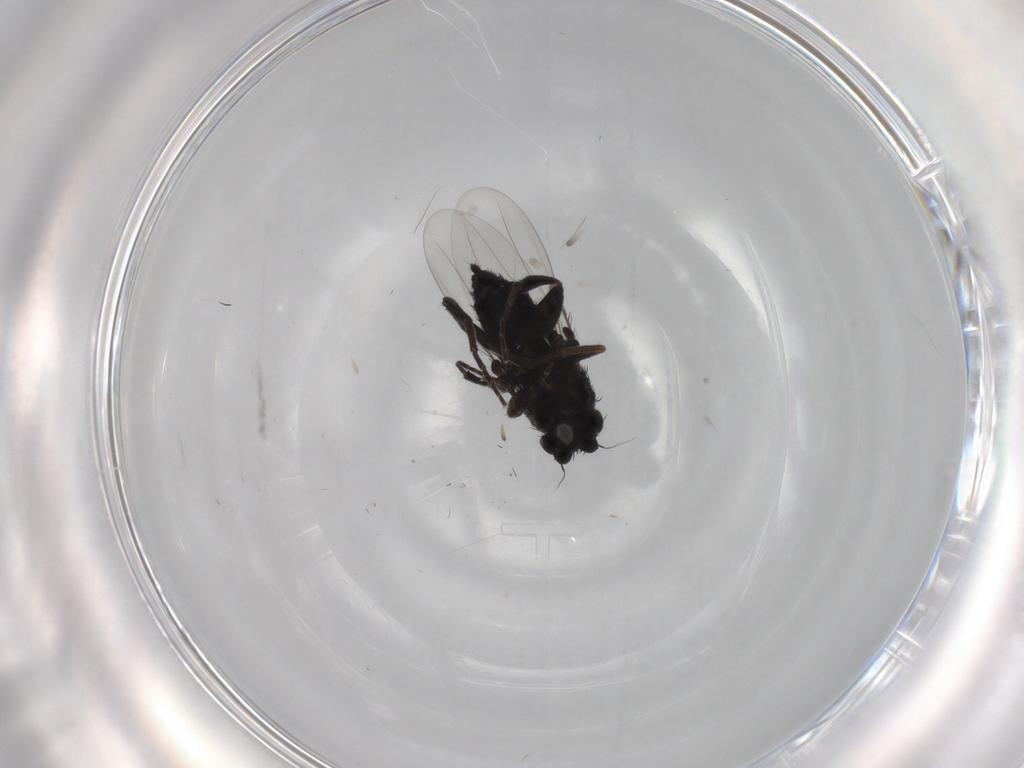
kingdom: Animalia
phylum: Arthropoda
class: Insecta
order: Diptera
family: Phoridae
